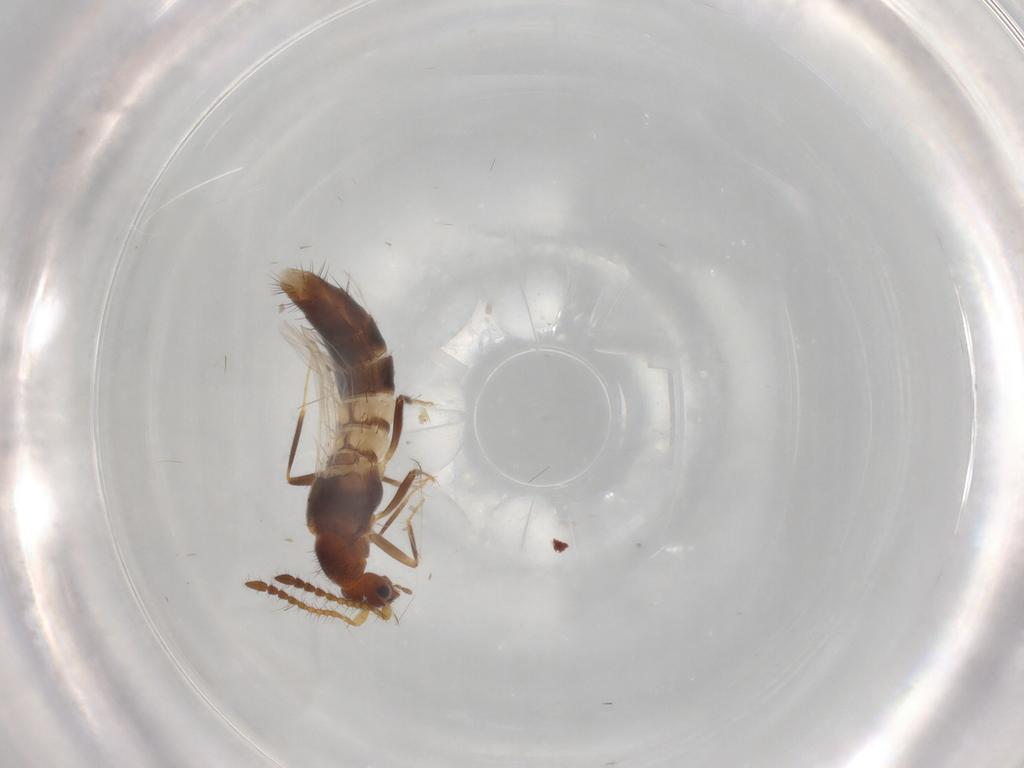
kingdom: Animalia
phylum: Arthropoda
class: Insecta
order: Coleoptera
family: Staphylinidae
